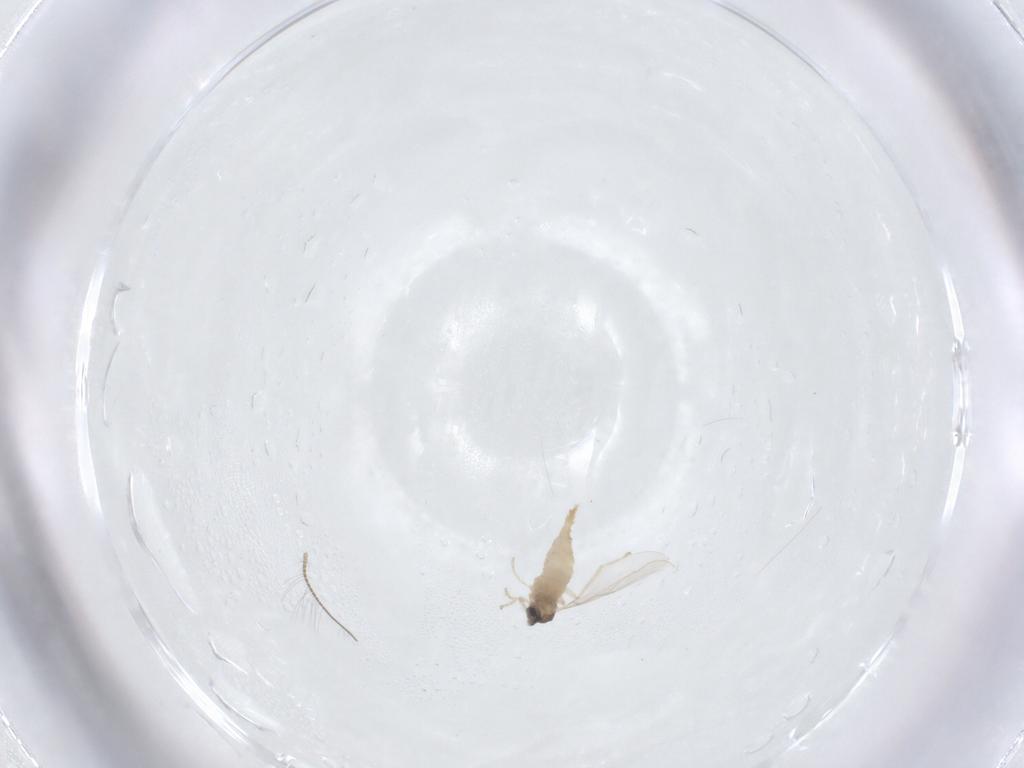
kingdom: Animalia
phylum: Arthropoda
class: Insecta
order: Diptera
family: Cecidomyiidae
